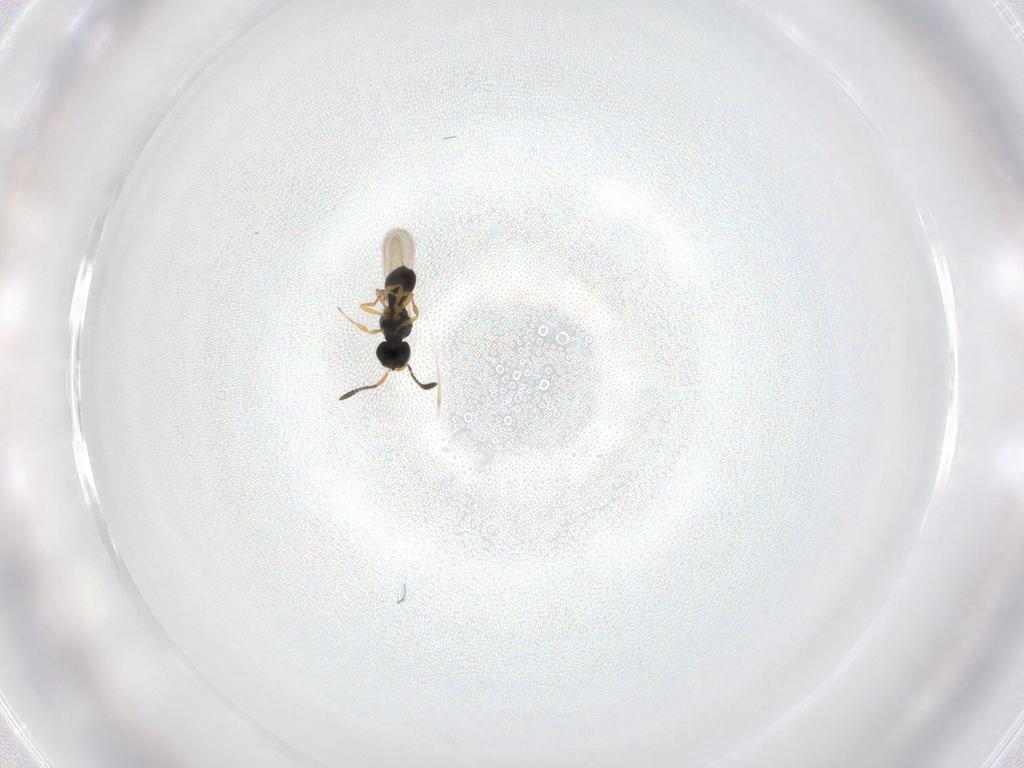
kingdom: Animalia
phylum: Arthropoda
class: Insecta
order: Hymenoptera
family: Scelionidae
